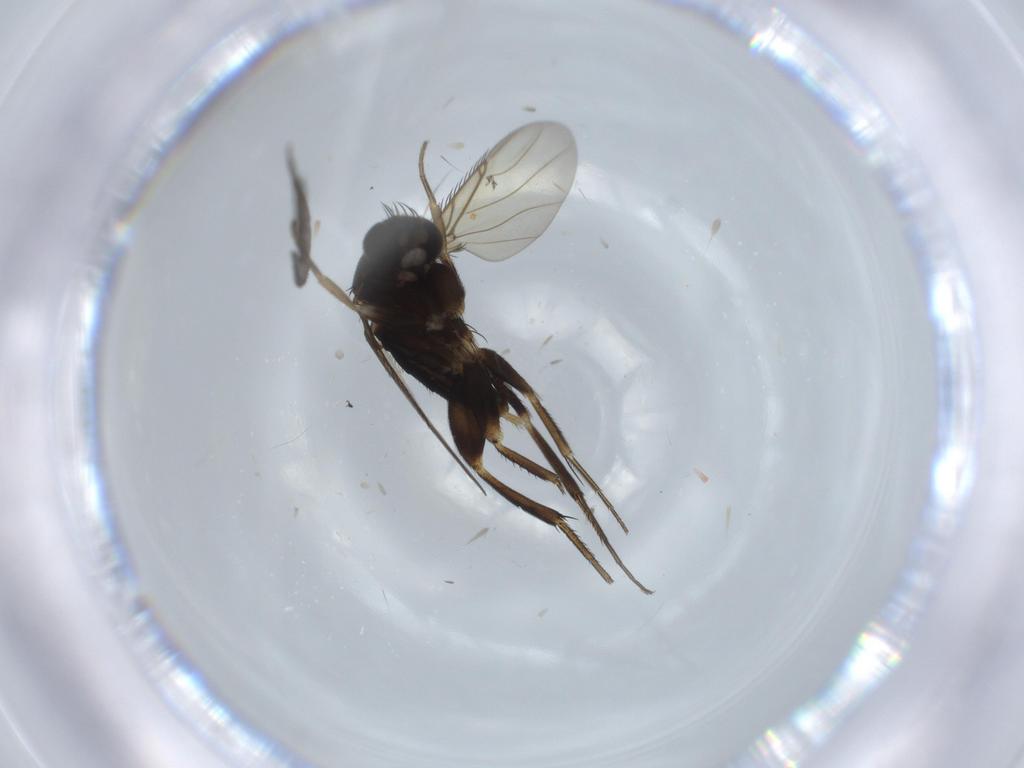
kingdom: Animalia
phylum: Arthropoda
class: Insecta
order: Diptera
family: Phoridae
